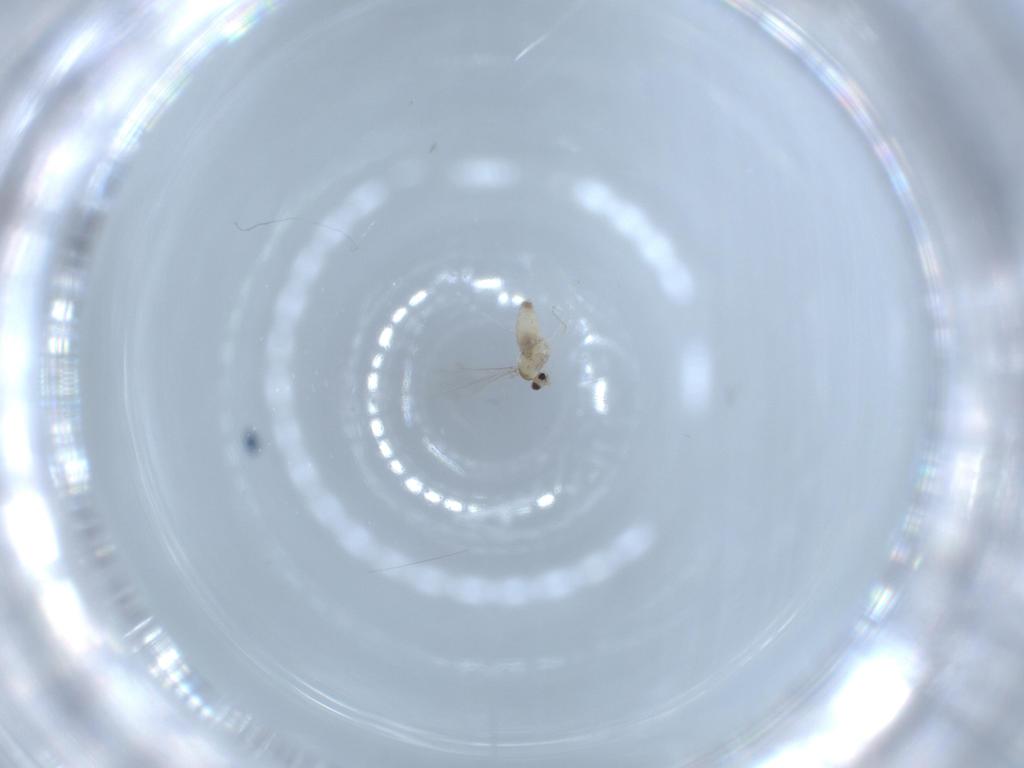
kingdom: Animalia
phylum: Arthropoda
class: Insecta
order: Diptera
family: Cecidomyiidae
